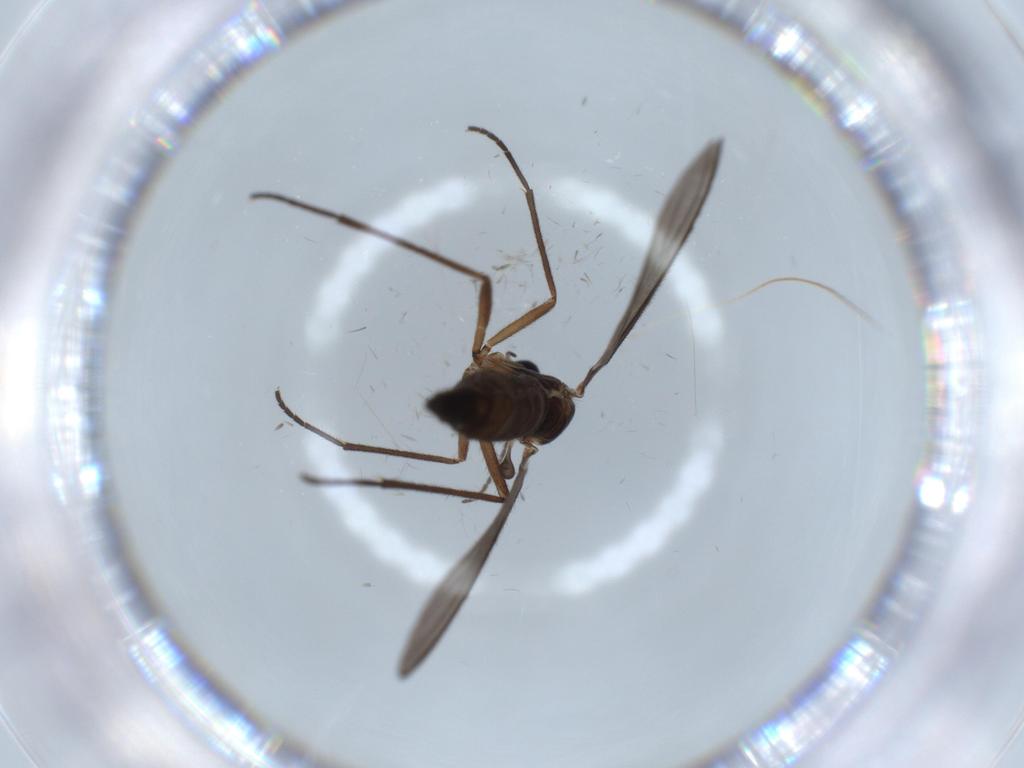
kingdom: Animalia
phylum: Arthropoda
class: Insecta
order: Diptera
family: Sciaridae
